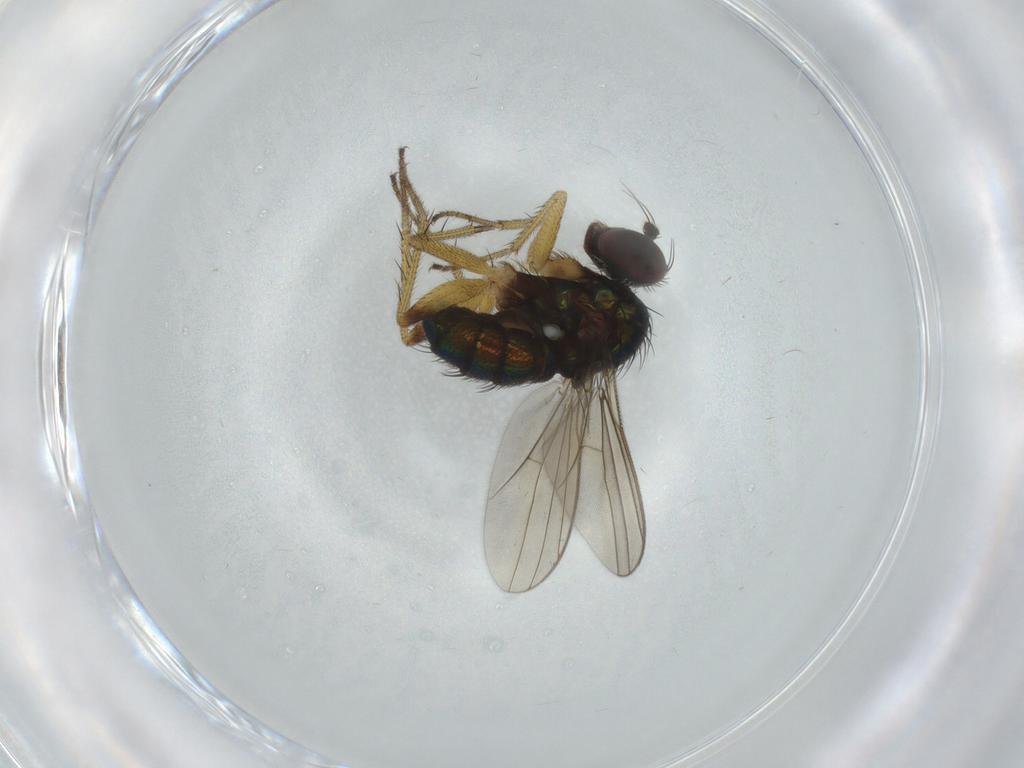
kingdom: Animalia
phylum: Arthropoda
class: Insecta
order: Diptera
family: Dolichopodidae
